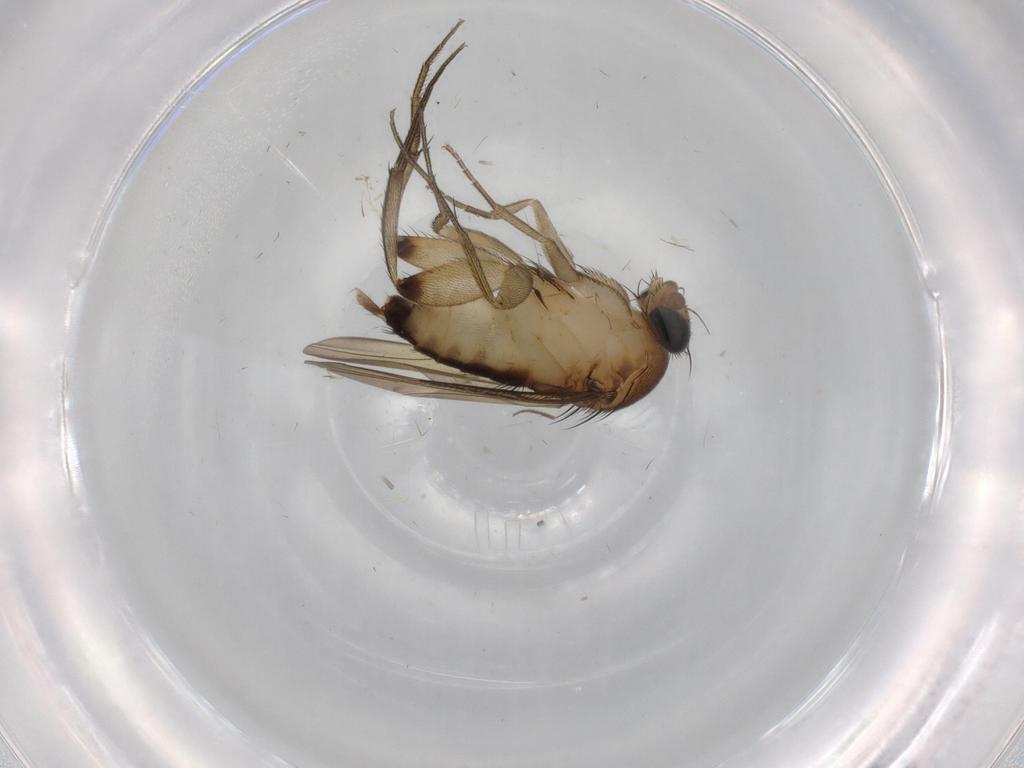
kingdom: Animalia
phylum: Arthropoda
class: Insecta
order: Diptera
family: Chloropidae
